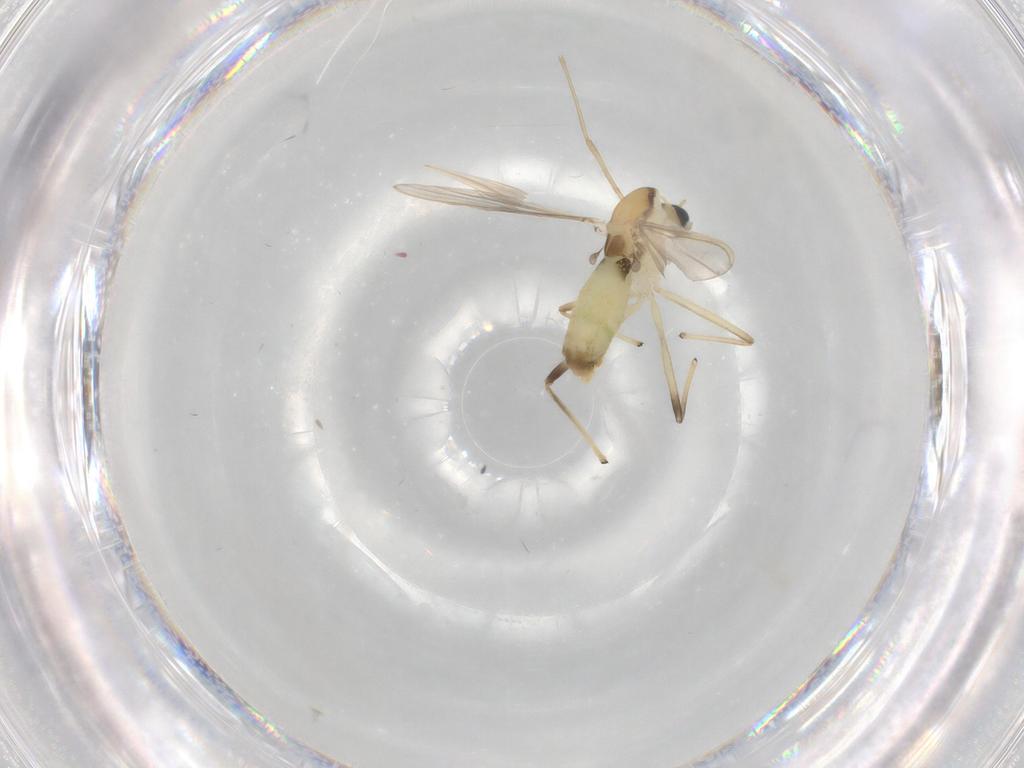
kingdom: Animalia
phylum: Arthropoda
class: Insecta
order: Diptera
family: Chironomidae
